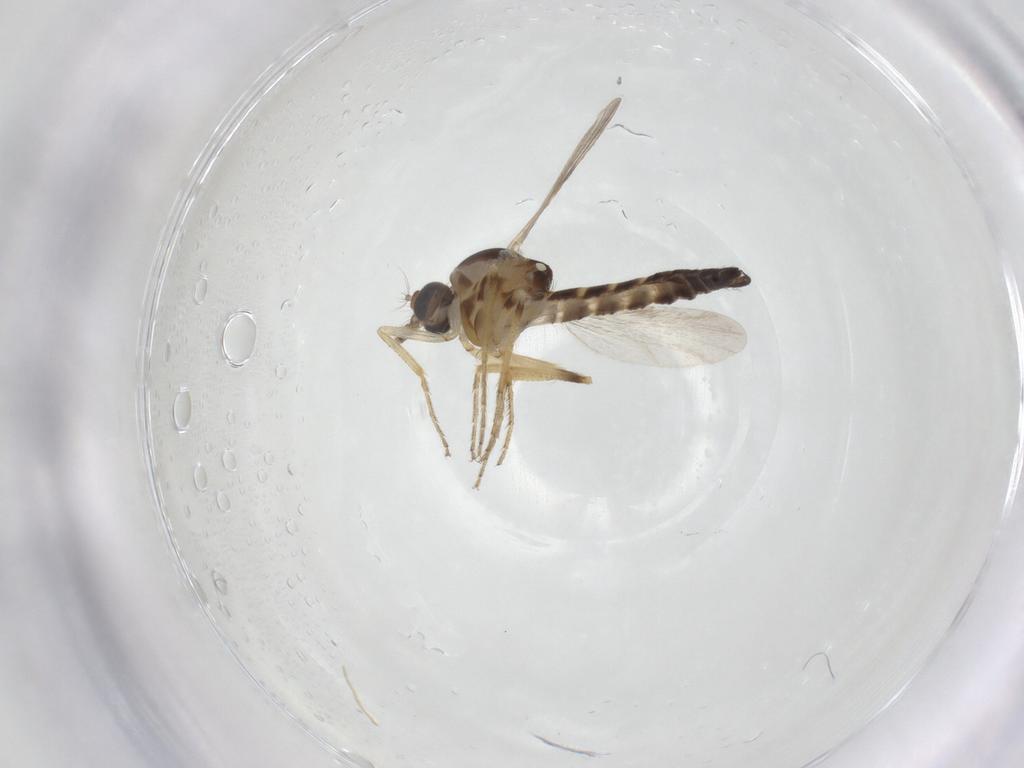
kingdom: Animalia
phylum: Arthropoda
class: Insecta
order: Diptera
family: Ceratopogonidae
